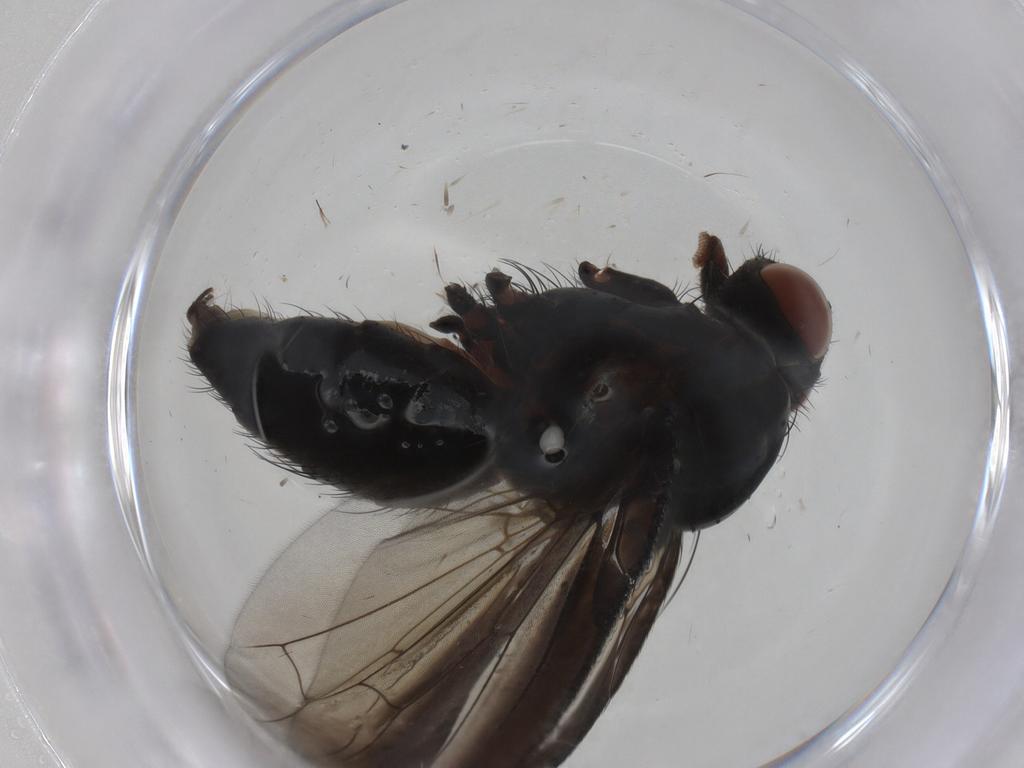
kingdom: Animalia
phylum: Arthropoda
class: Insecta
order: Diptera
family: Anthomyiidae
